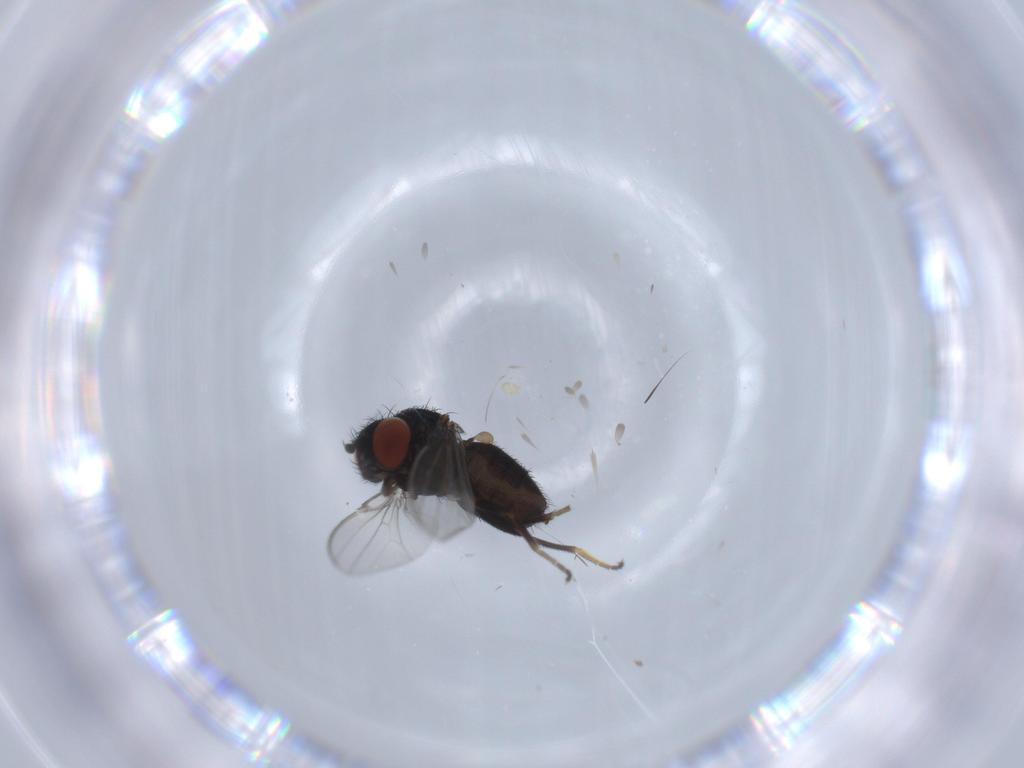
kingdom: Animalia
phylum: Arthropoda
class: Insecta
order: Diptera
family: Milichiidae
